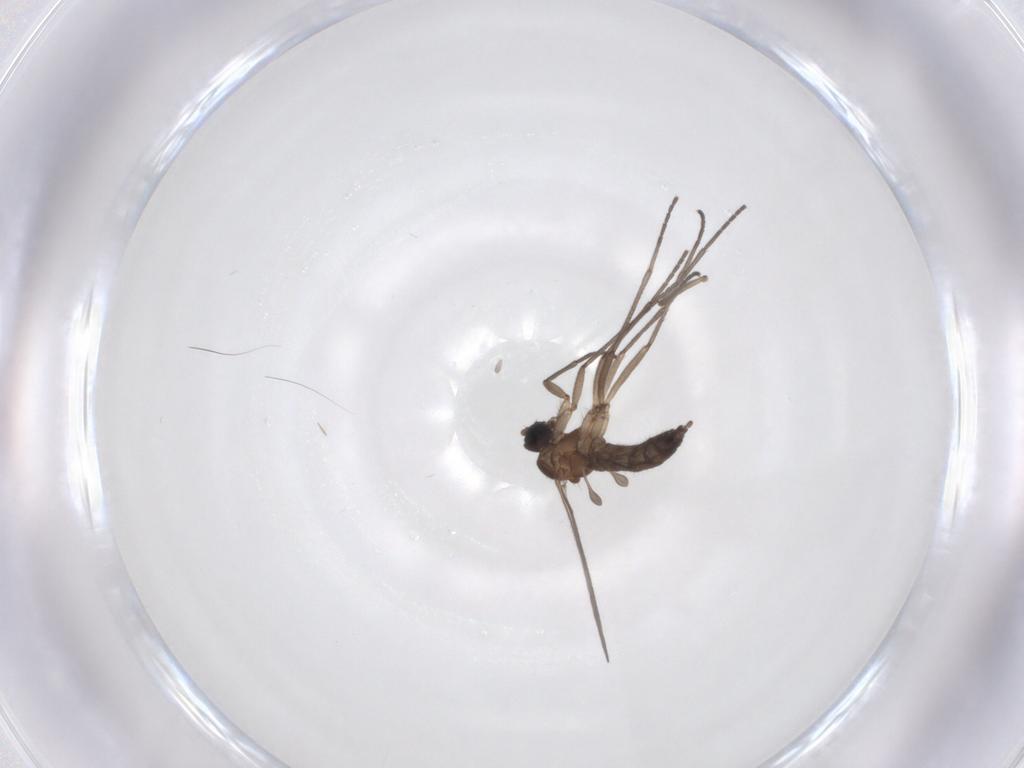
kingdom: Animalia
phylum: Arthropoda
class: Insecta
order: Diptera
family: Sciaridae
